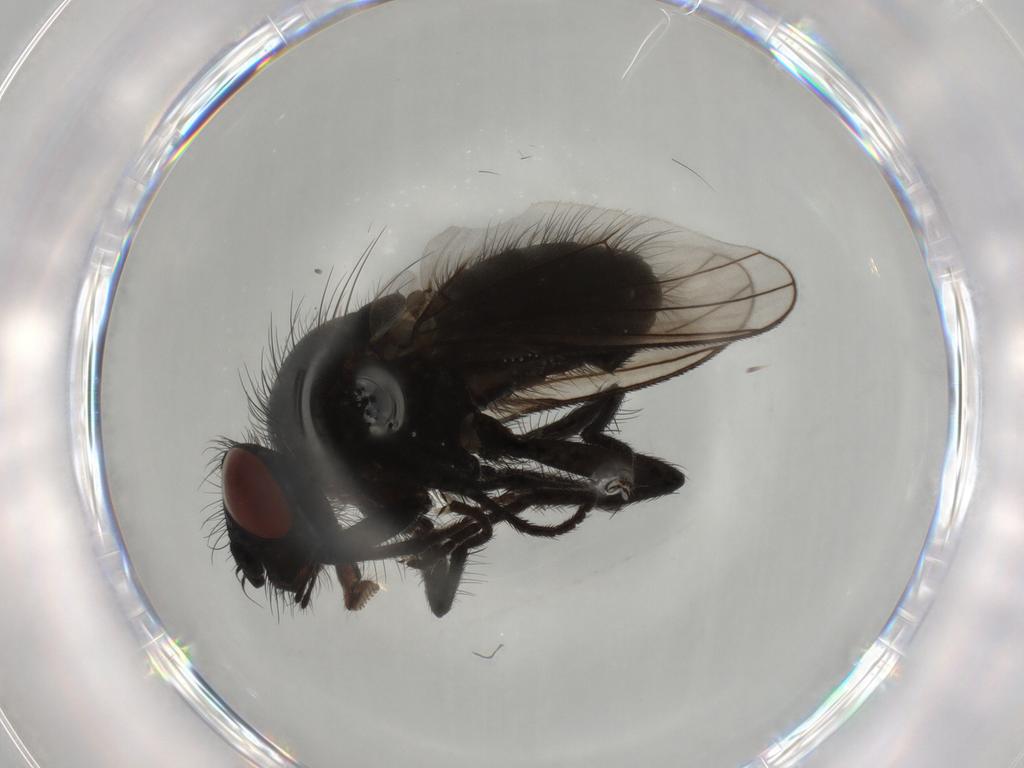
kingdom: Animalia
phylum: Arthropoda
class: Insecta
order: Diptera
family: Muscidae
